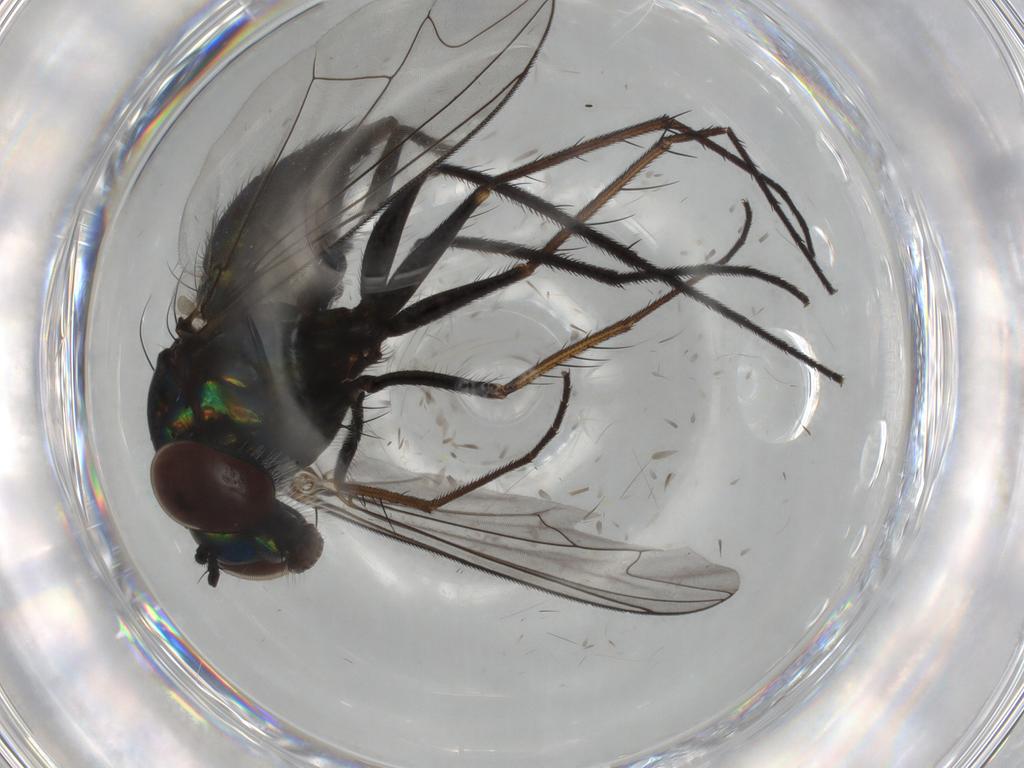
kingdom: Animalia
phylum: Arthropoda
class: Insecta
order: Diptera
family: Dolichopodidae
